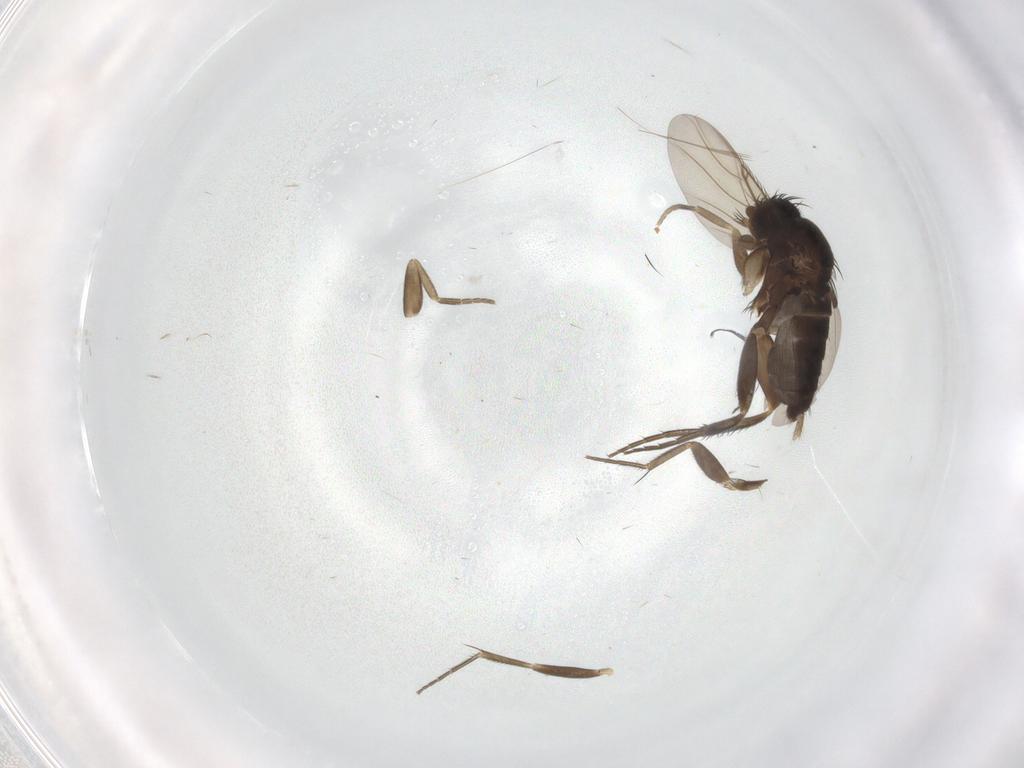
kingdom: Animalia
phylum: Arthropoda
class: Insecta
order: Diptera
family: Phoridae
